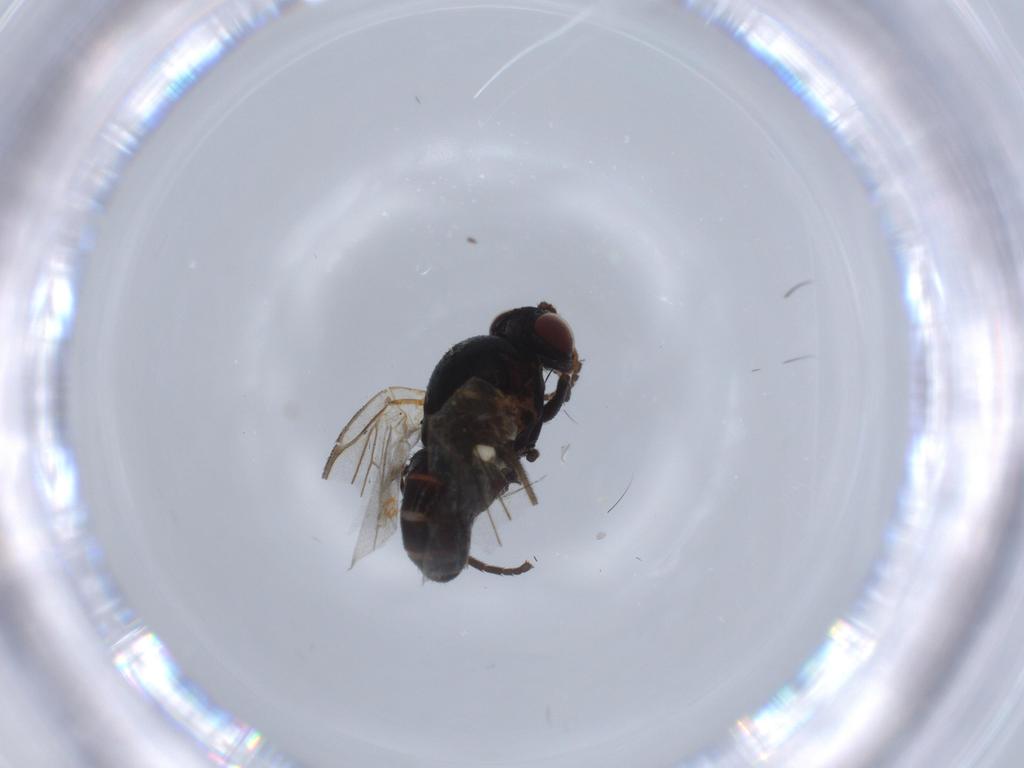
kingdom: Animalia
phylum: Arthropoda
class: Insecta
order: Diptera
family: Agromyzidae
